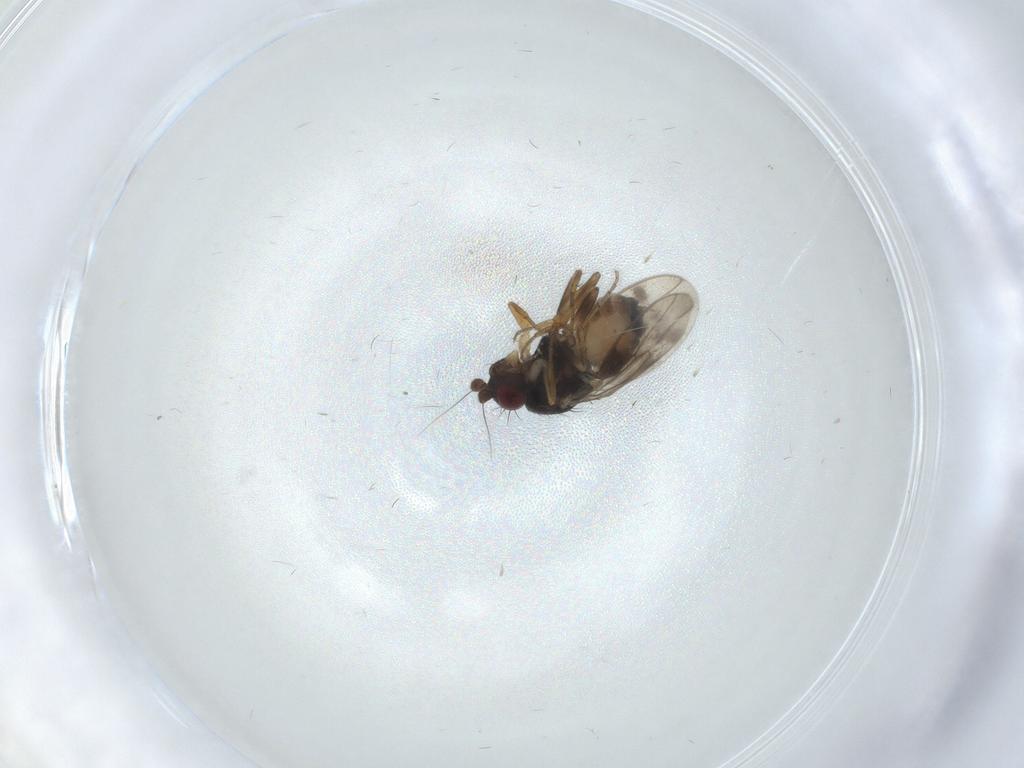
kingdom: Animalia
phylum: Arthropoda
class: Insecta
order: Diptera
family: Sphaeroceridae
